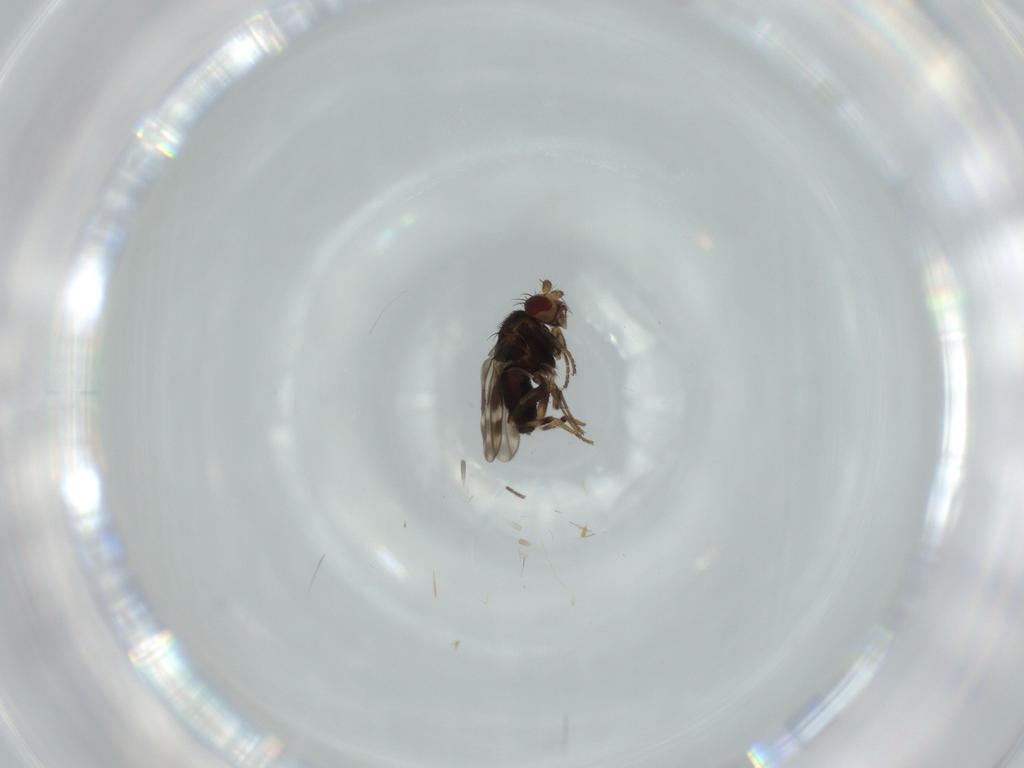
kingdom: Animalia
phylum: Arthropoda
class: Insecta
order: Diptera
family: Sphaeroceridae
